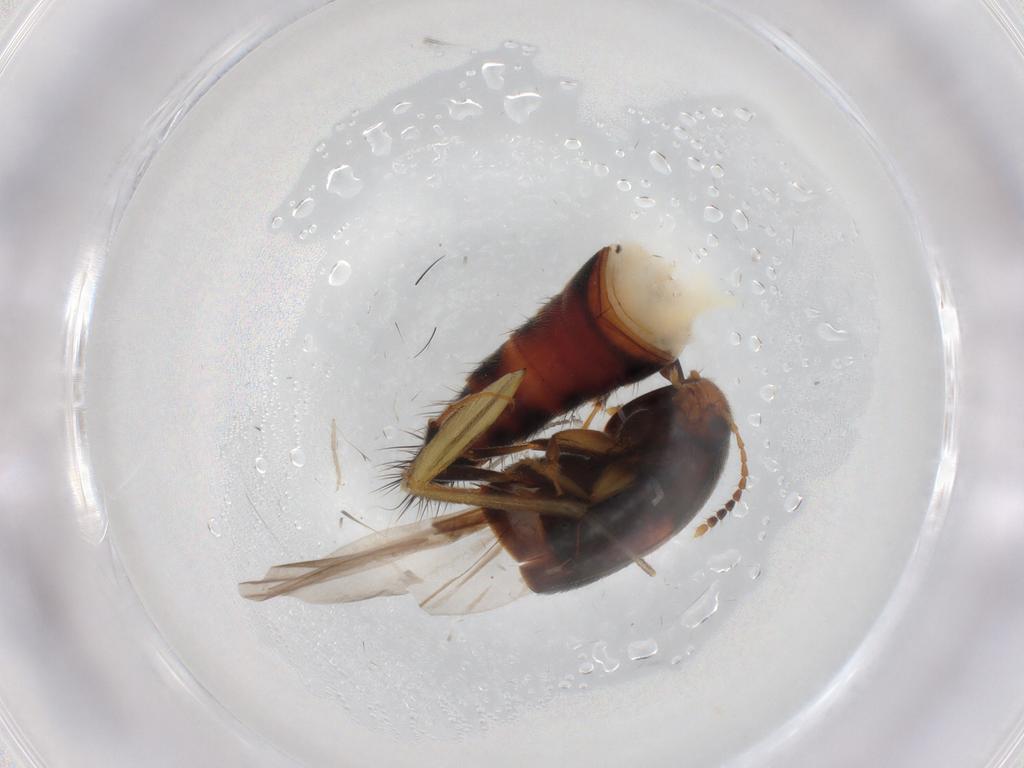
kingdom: Animalia
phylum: Arthropoda
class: Insecta
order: Coleoptera
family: Staphylinidae
